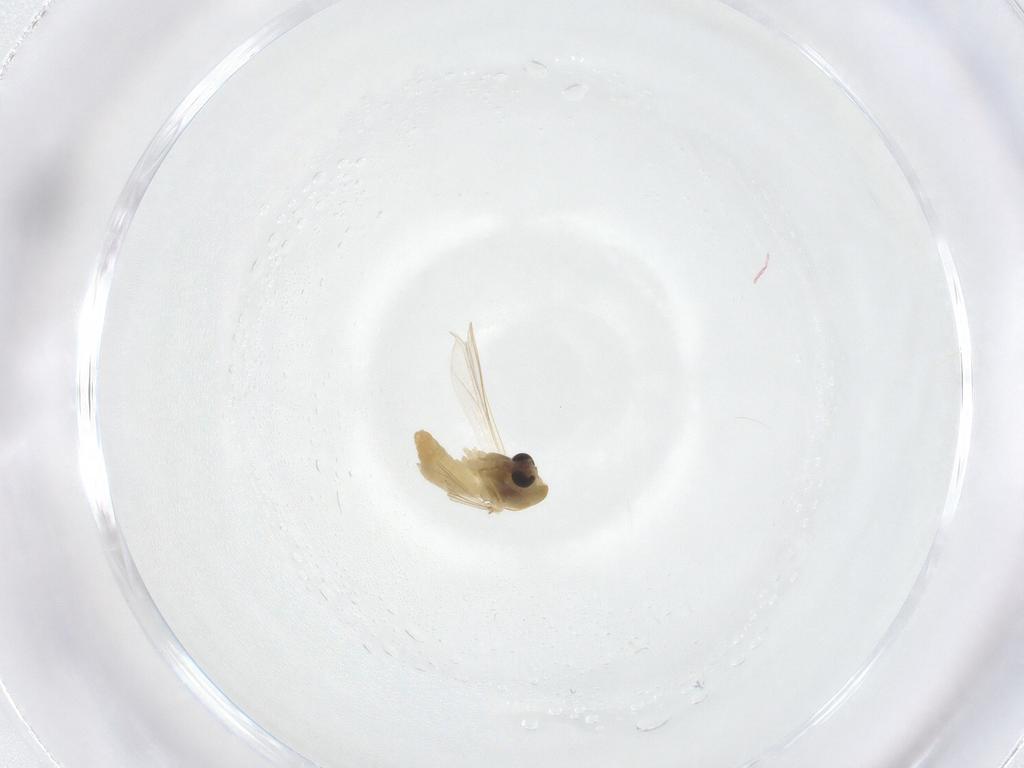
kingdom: Animalia
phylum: Arthropoda
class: Insecta
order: Diptera
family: Chironomidae
